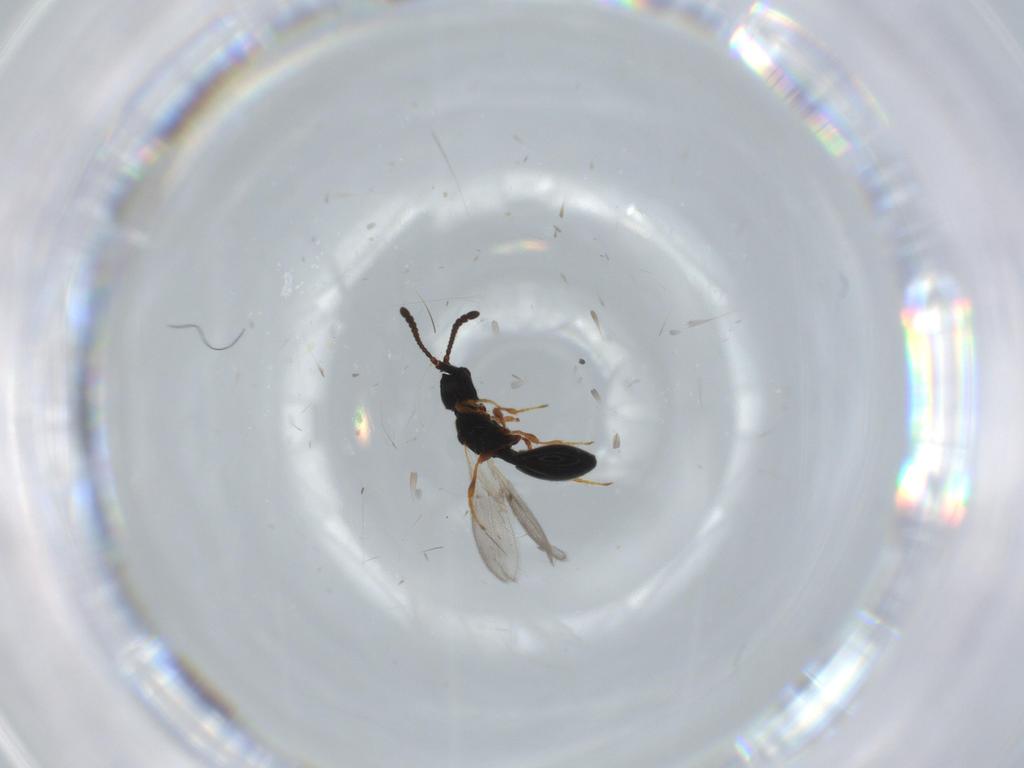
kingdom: Animalia
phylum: Arthropoda
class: Insecta
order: Hymenoptera
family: Diapriidae
